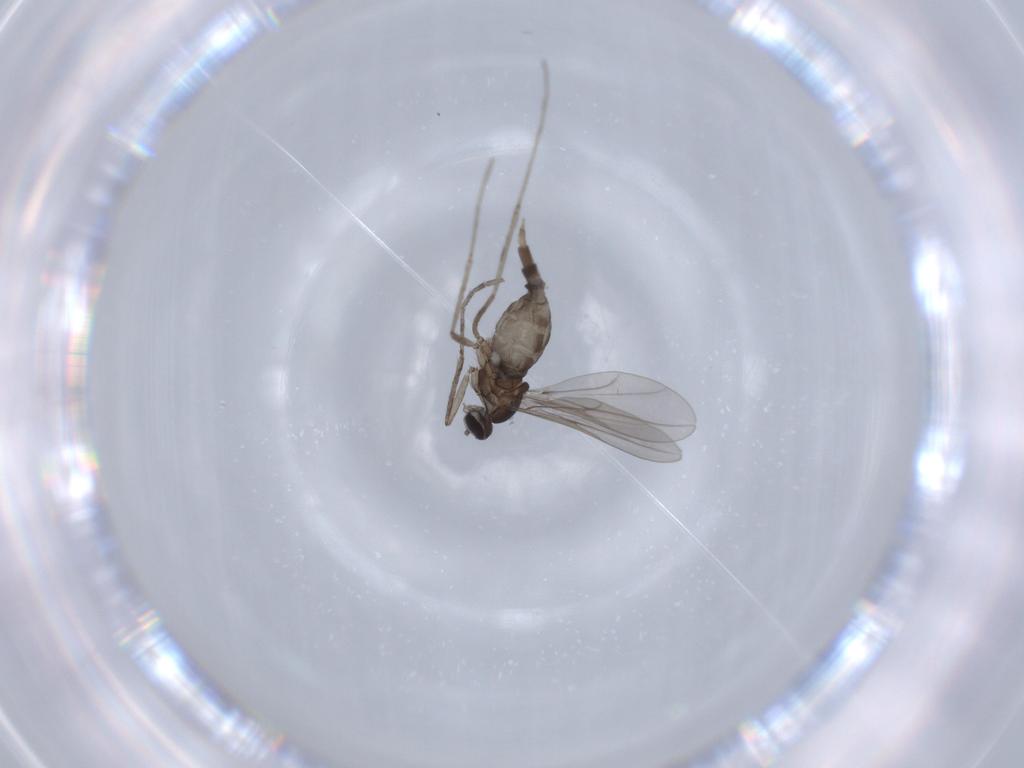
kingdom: Animalia
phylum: Arthropoda
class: Insecta
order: Diptera
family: Cecidomyiidae
